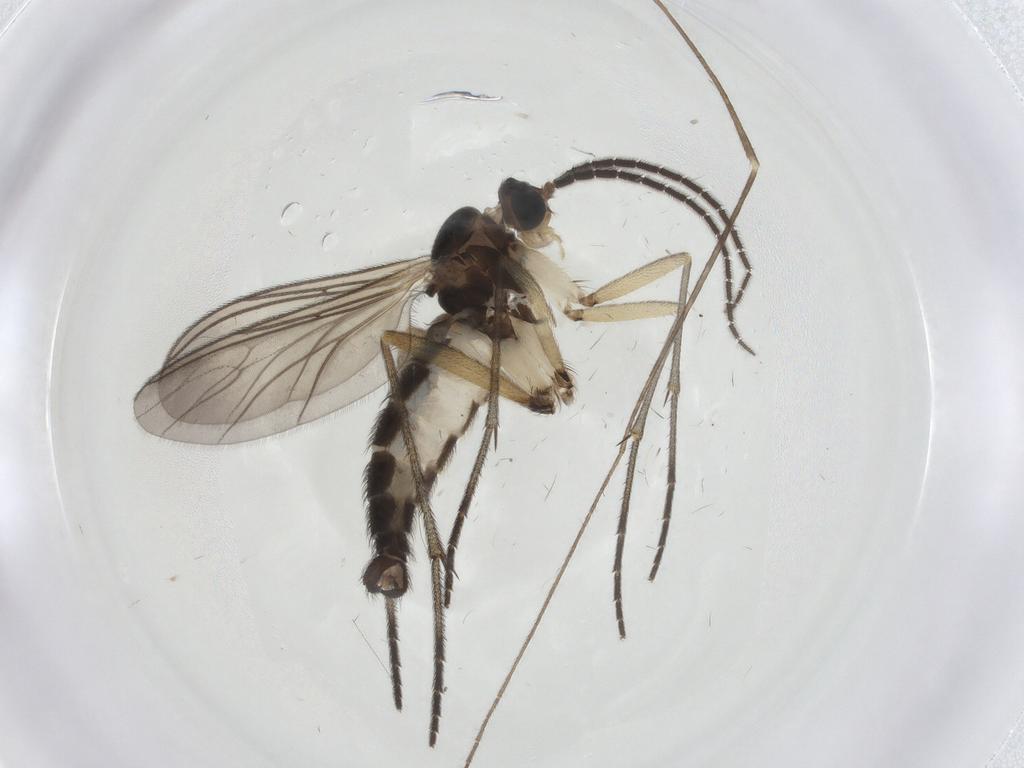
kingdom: Animalia
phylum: Arthropoda
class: Insecta
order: Diptera
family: Sciaridae
